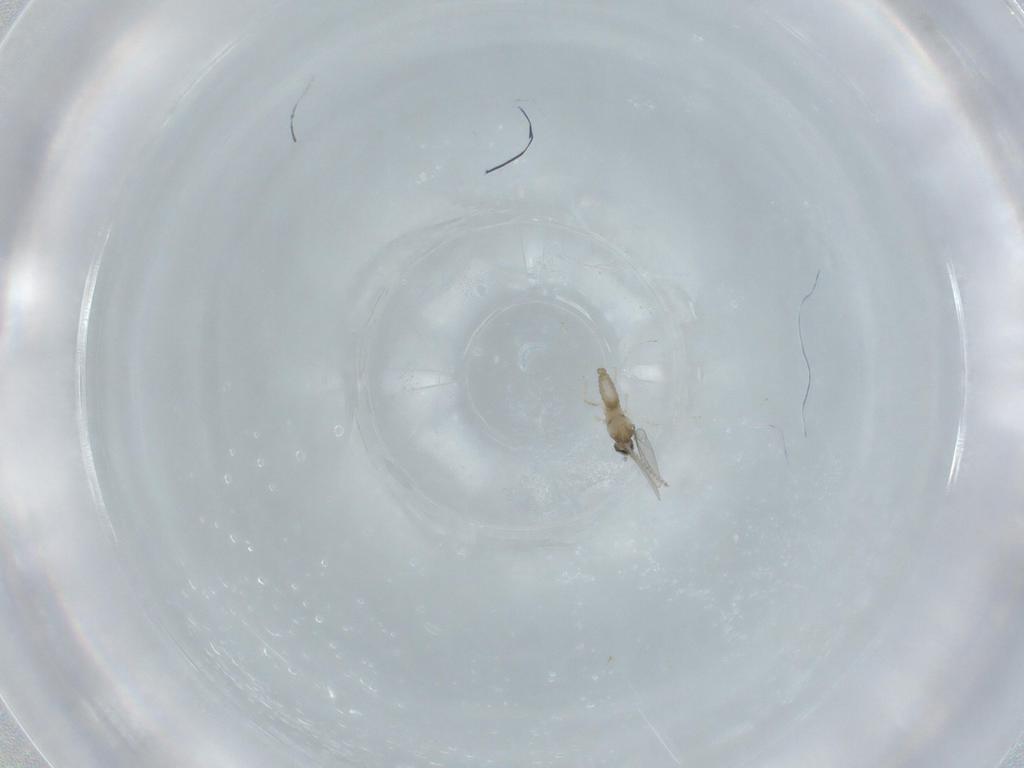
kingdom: Animalia
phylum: Arthropoda
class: Insecta
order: Diptera
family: Cecidomyiidae
